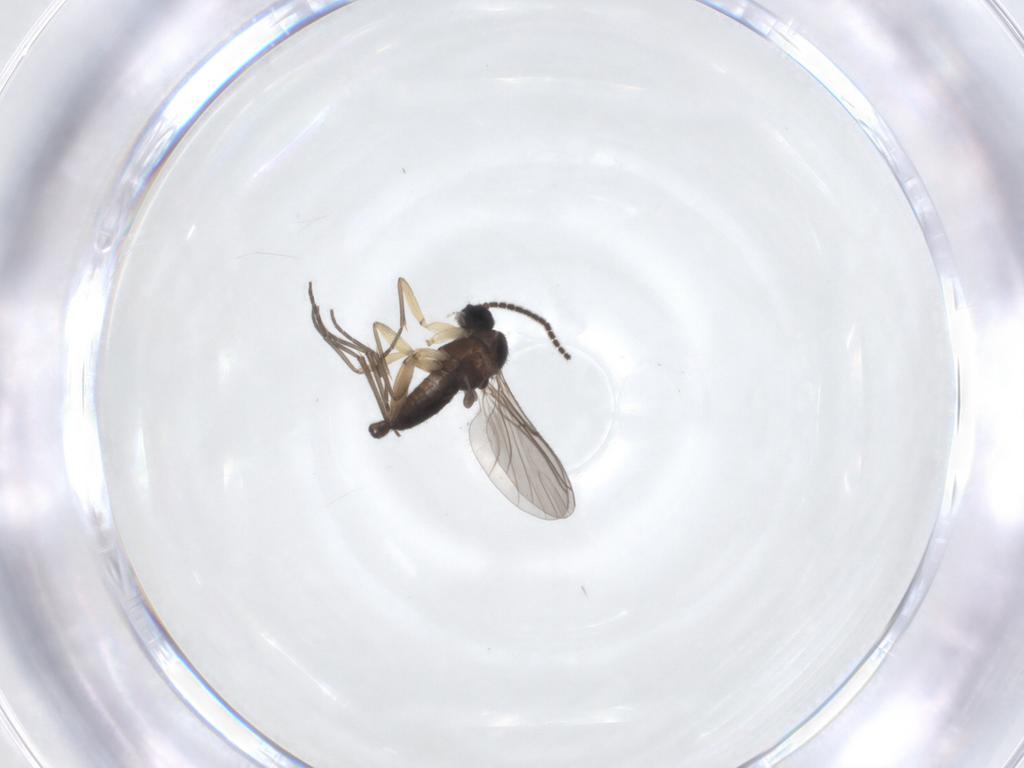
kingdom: Animalia
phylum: Arthropoda
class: Insecta
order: Diptera
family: Sciaridae
